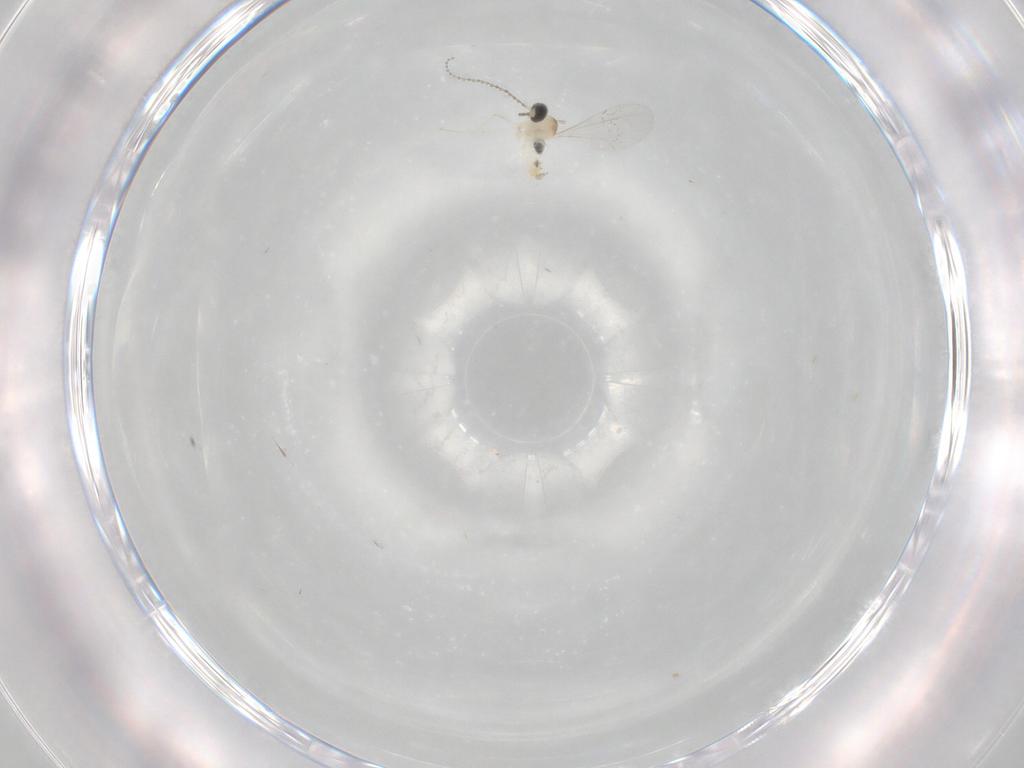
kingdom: Animalia
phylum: Arthropoda
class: Insecta
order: Diptera
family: Cecidomyiidae
